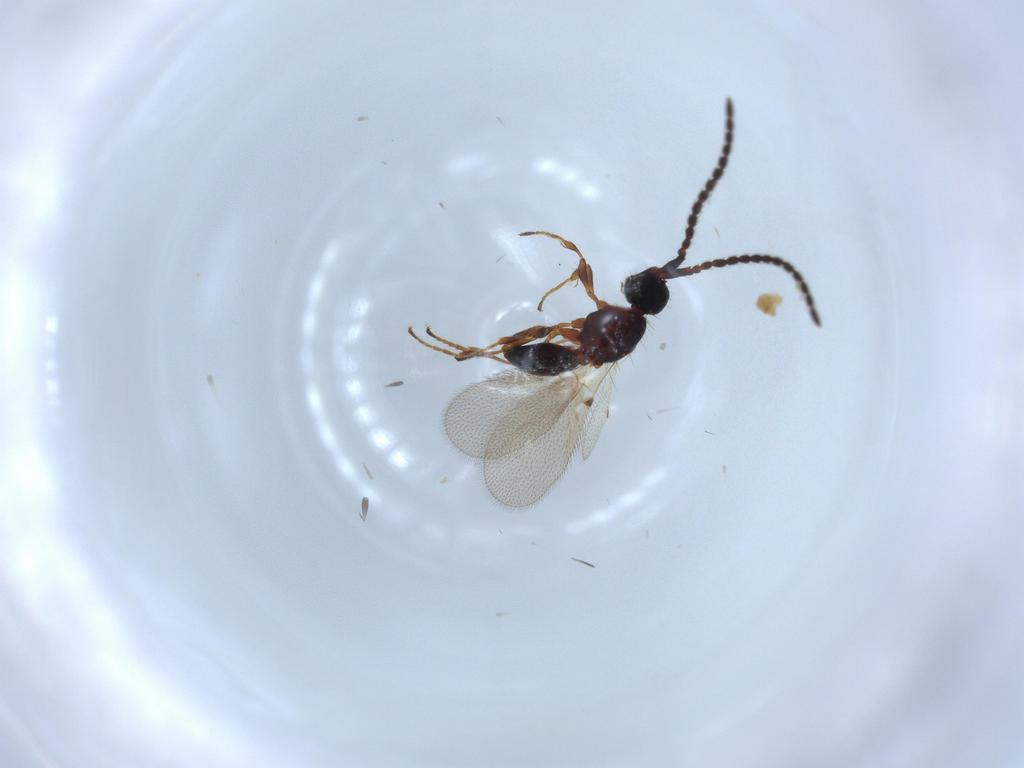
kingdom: Animalia
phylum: Arthropoda
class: Insecta
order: Hymenoptera
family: Diapriidae
